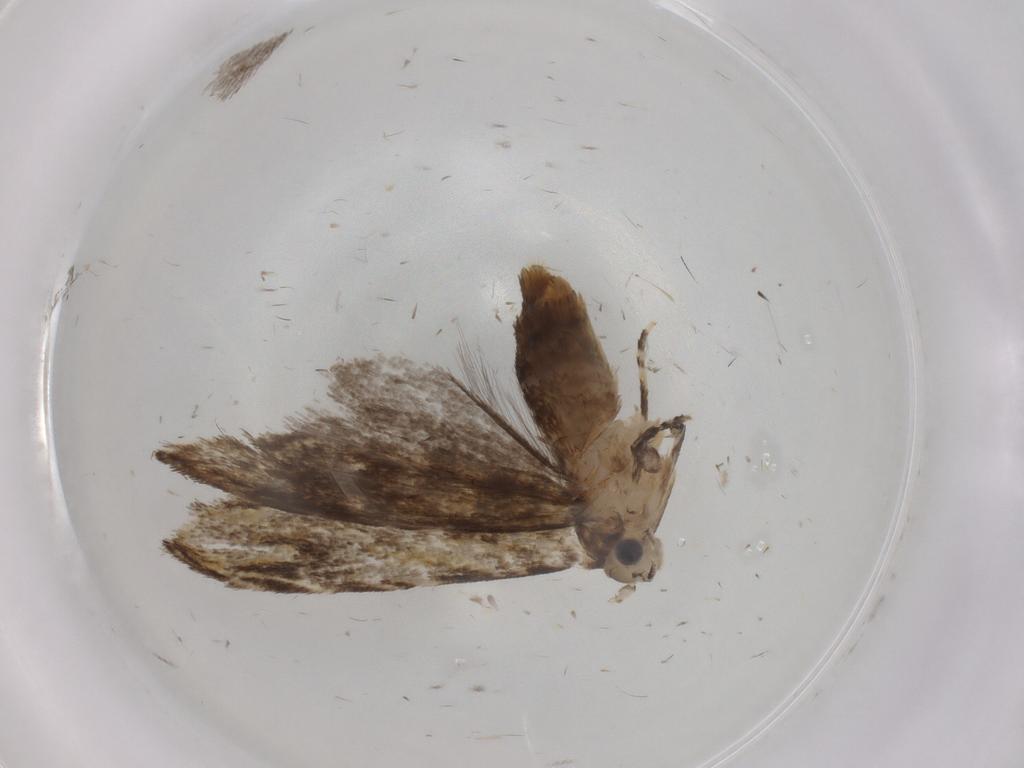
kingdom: Animalia
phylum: Arthropoda
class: Insecta
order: Lepidoptera
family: Tineidae
